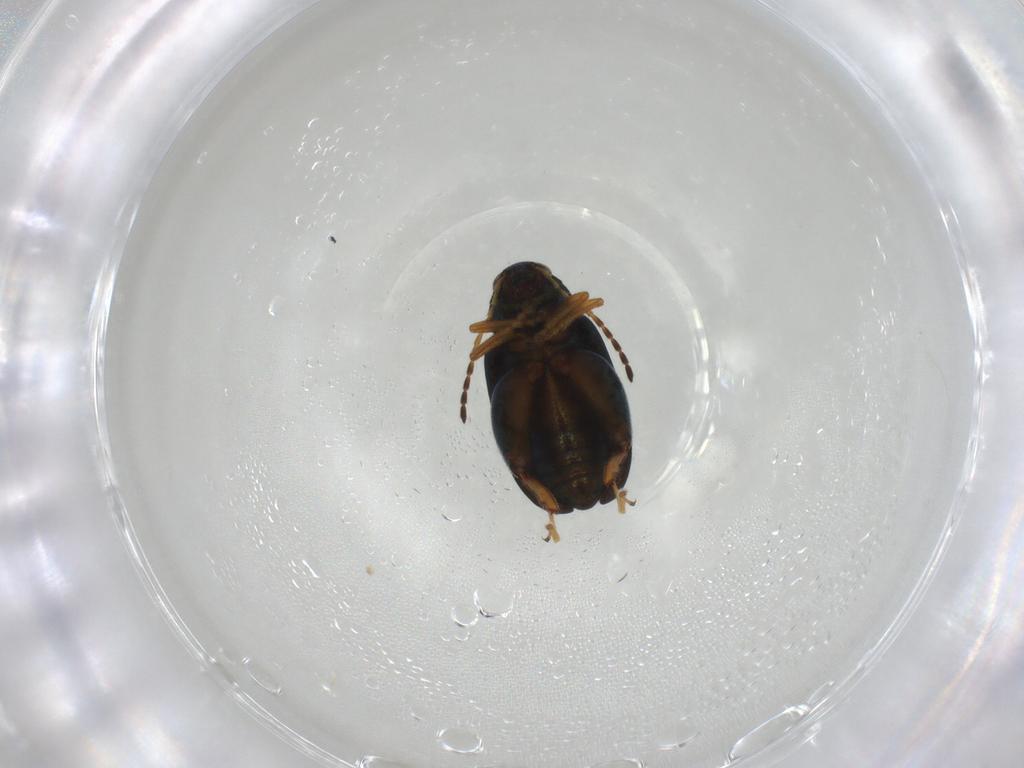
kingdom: Animalia
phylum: Arthropoda
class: Insecta
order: Coleoptera
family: Chrysomelidae
